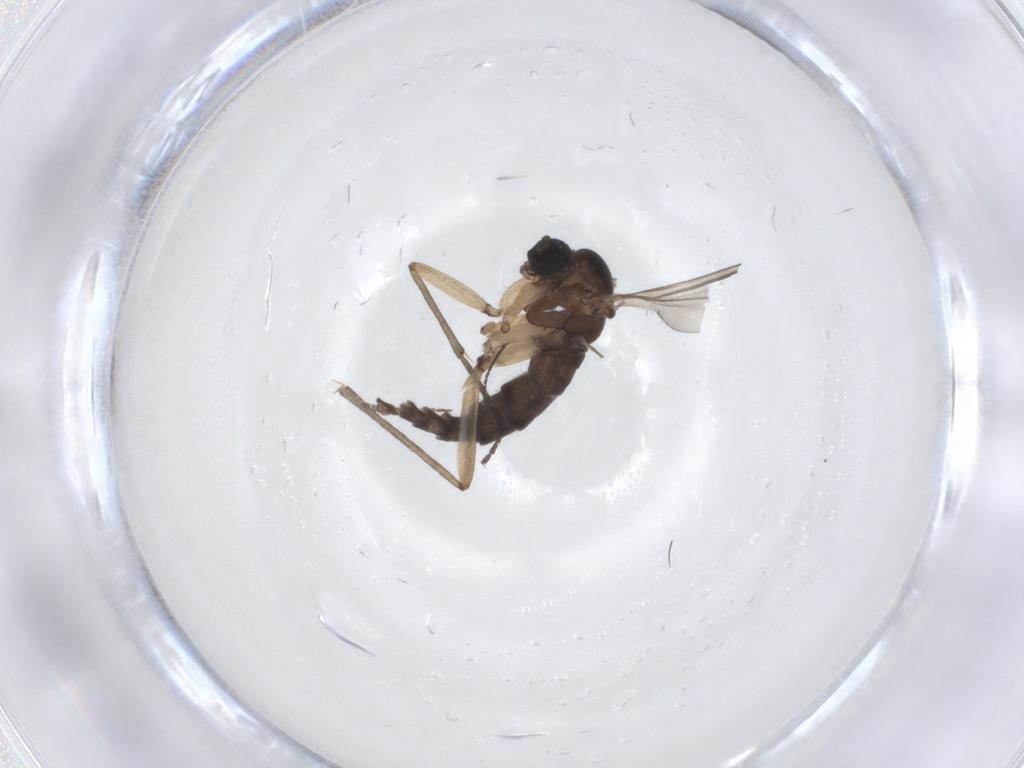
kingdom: Animalia
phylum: Arthropoda
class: Insecta
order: Diptera
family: Sciaridae
